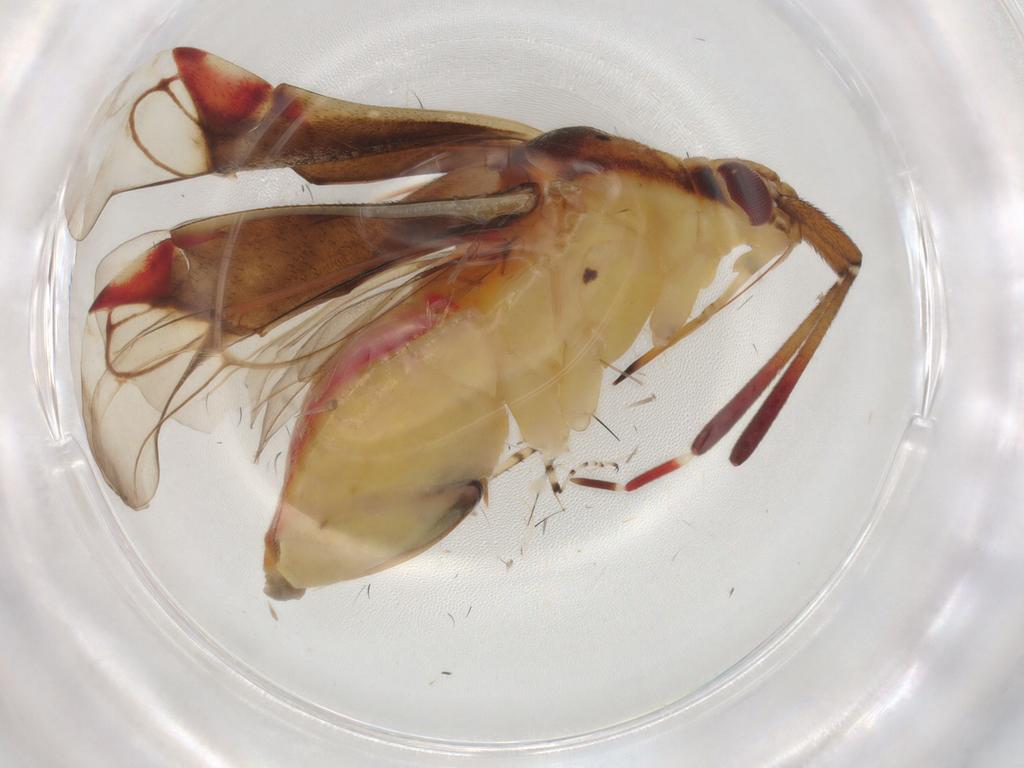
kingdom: Animalia
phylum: Arthropoda
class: Insecta
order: Hemiptera
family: Miridae
